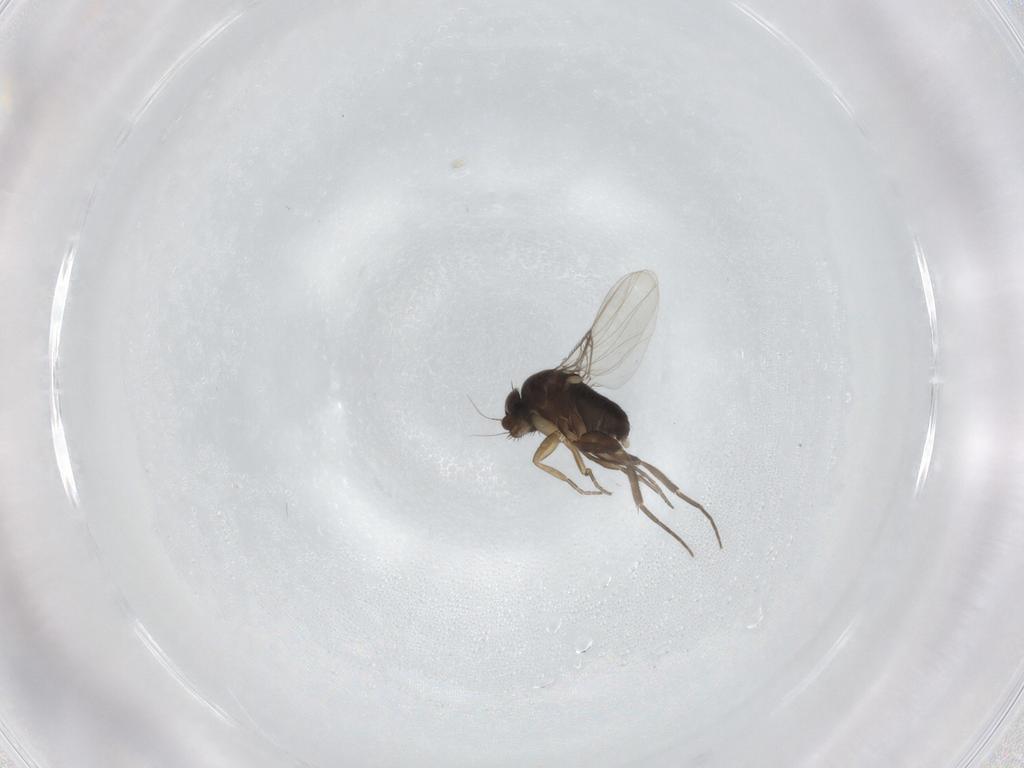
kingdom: Animalia
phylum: Arthropoda
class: Insecta
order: Diptera
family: Phoridae
